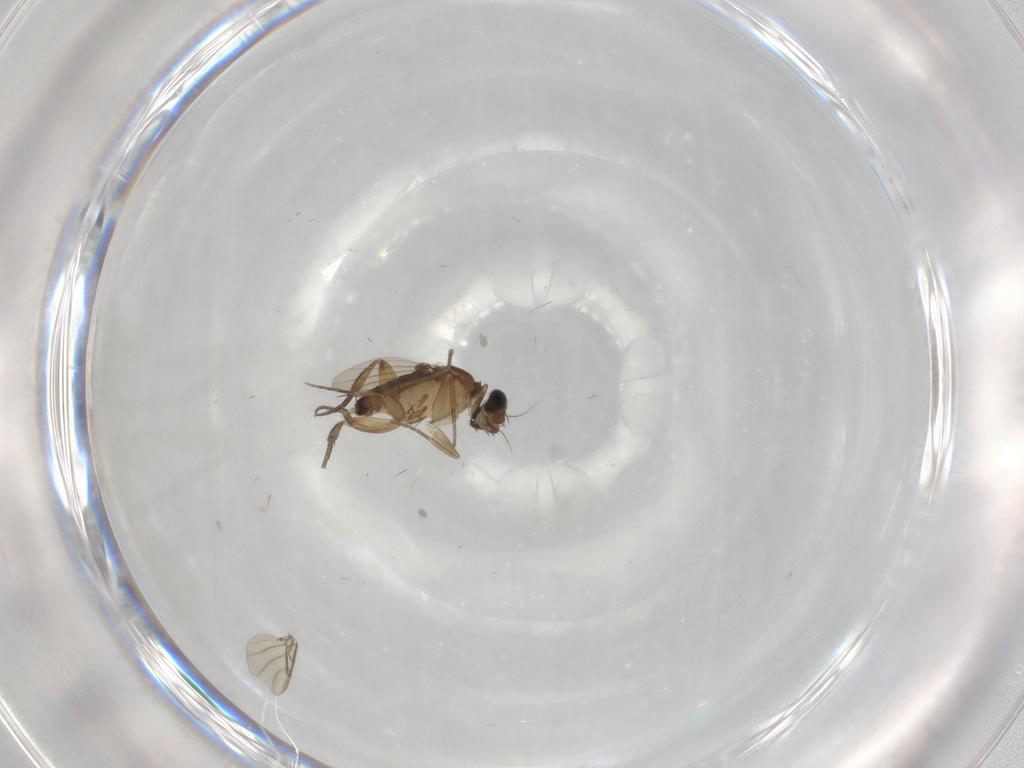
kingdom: Animalia
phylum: Arthropoda
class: Insecta
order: Diptera
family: Phoridae
